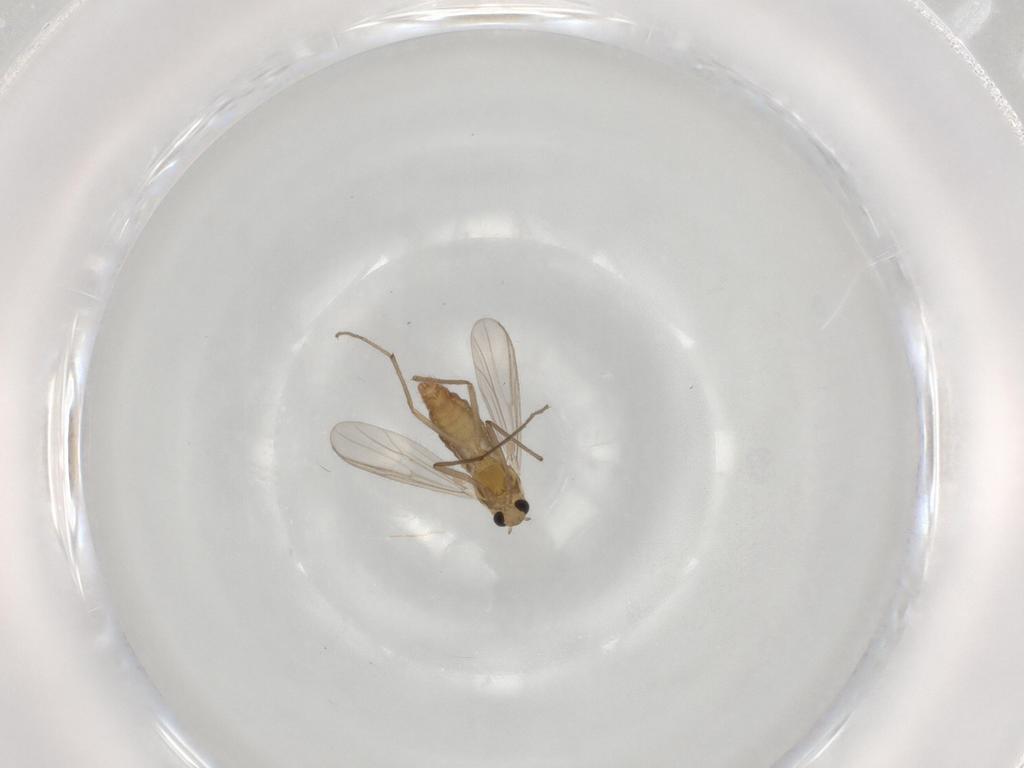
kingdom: Animalia
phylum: Arthropoda
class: Insecta
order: Diptera
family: Chironomidae
